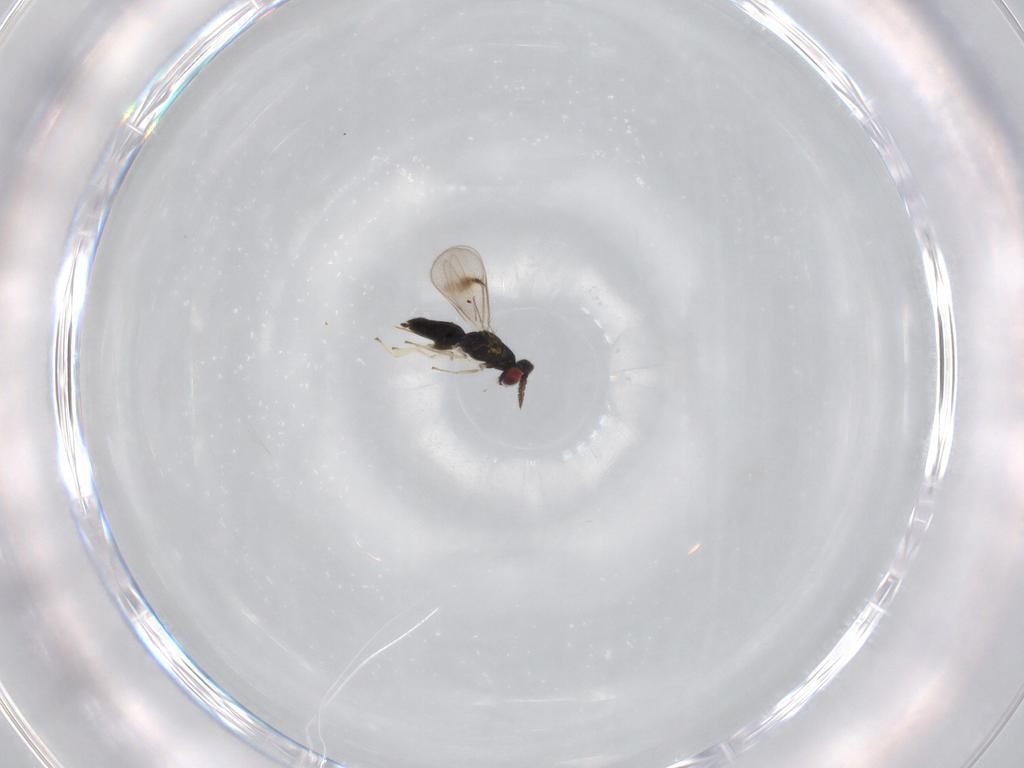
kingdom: Animalia
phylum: Arthropoda
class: Insecta
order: Hymenoptera
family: Eulophidae
